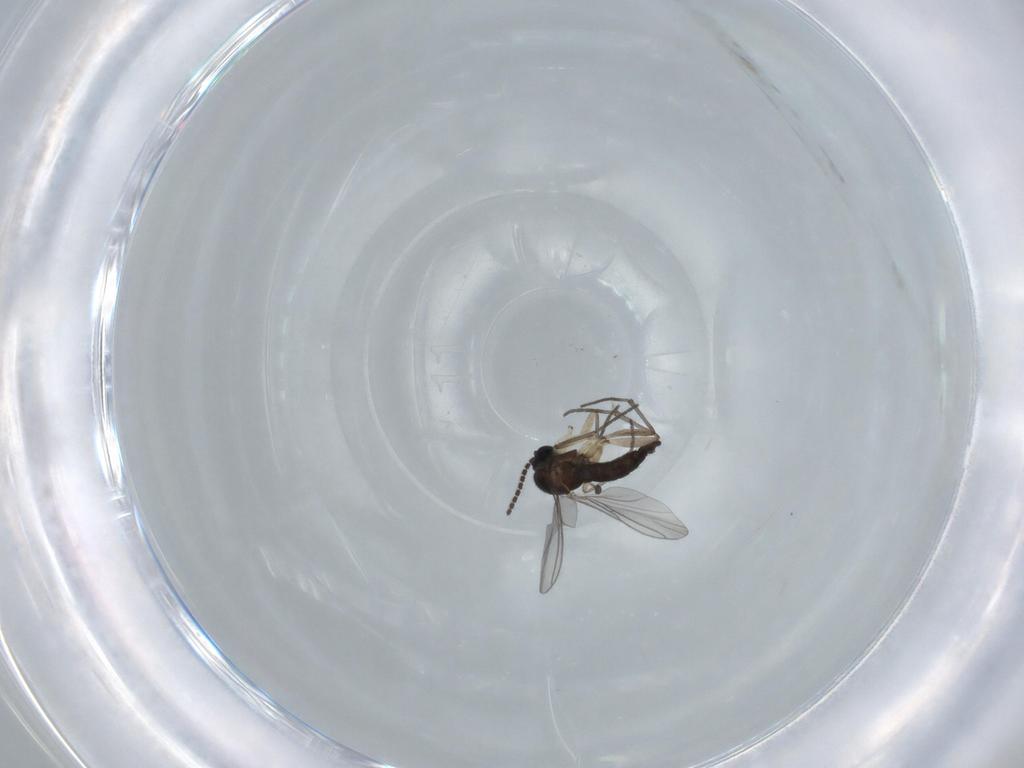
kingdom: Animalia
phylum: Arthropoda
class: Insecta
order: Diptera
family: Sciaridae
